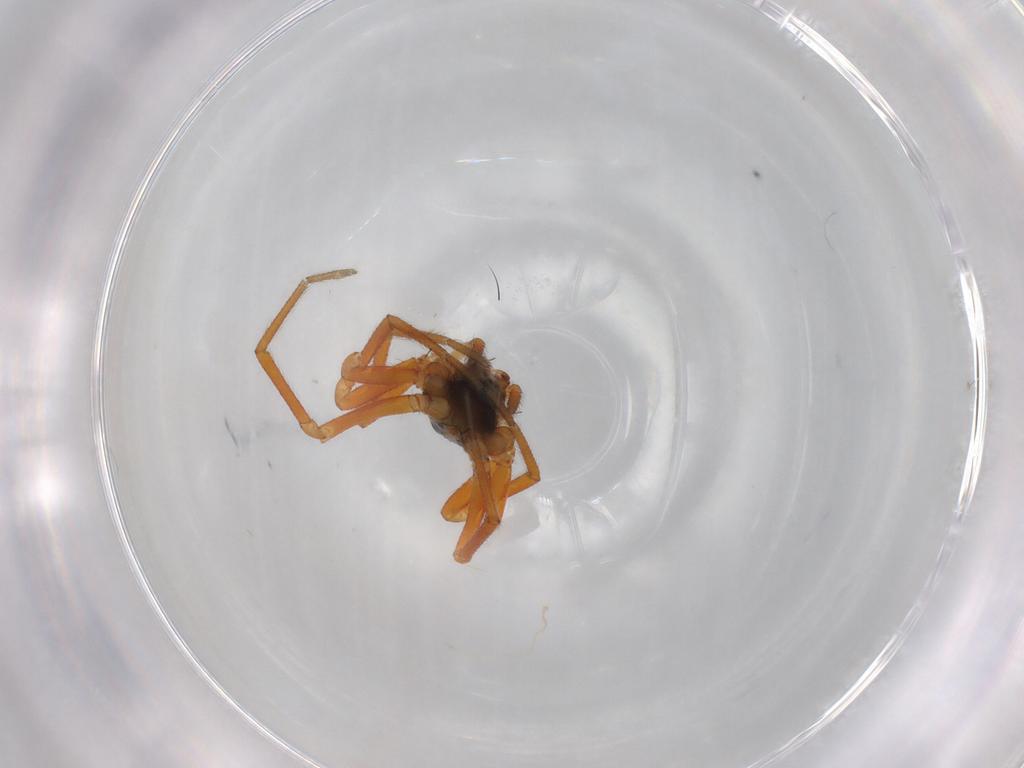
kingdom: Animalia
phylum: Arthropoda
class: Arachnida
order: Araneae
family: Linyphiidae
